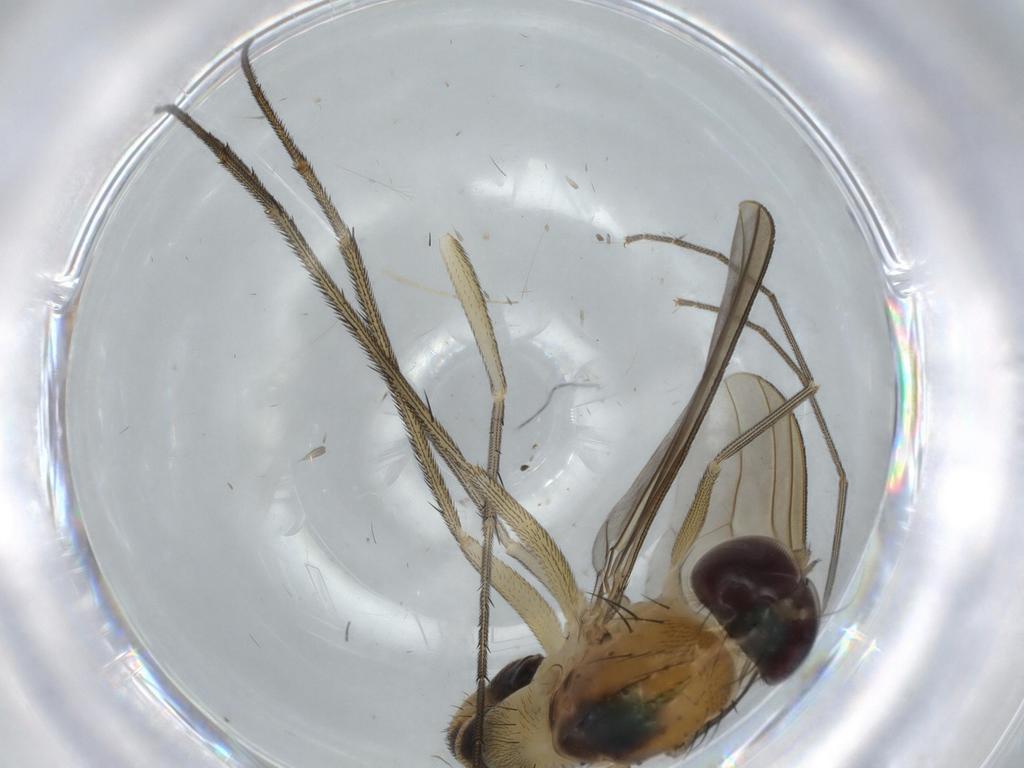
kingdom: Animalia
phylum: Arthropoda
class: Insecta
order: Diptera
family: Dolichopodidae
